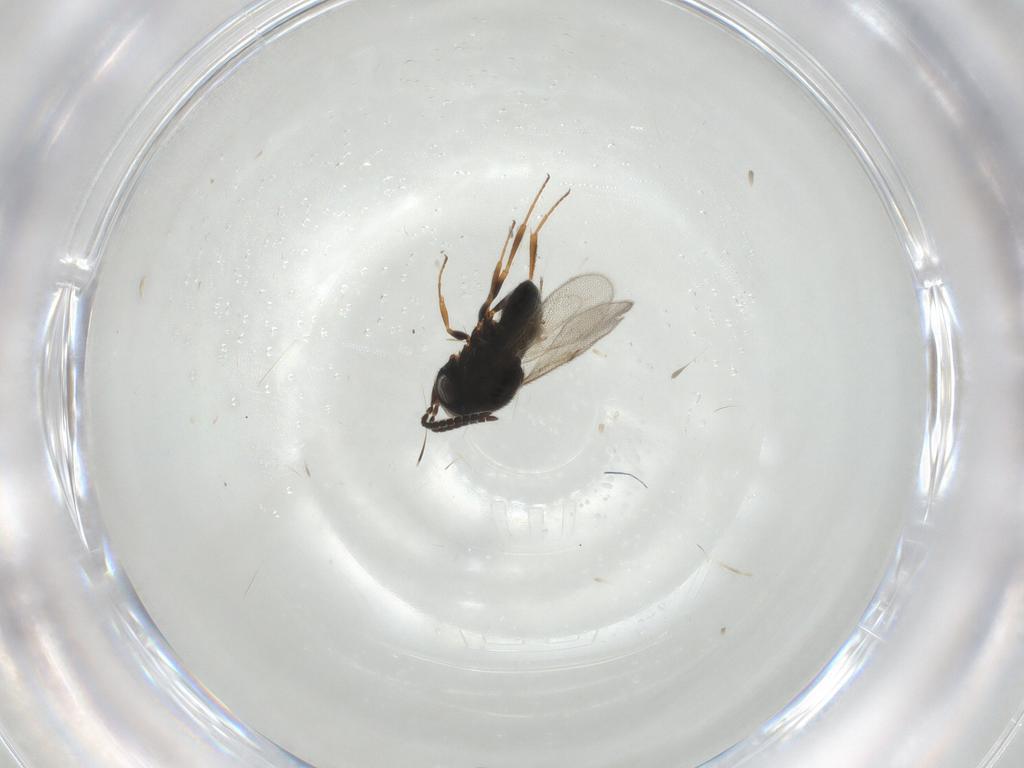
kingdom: Animalia
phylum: Arthropoda
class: Insecta
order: Hymenoptera
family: Scelionidae
